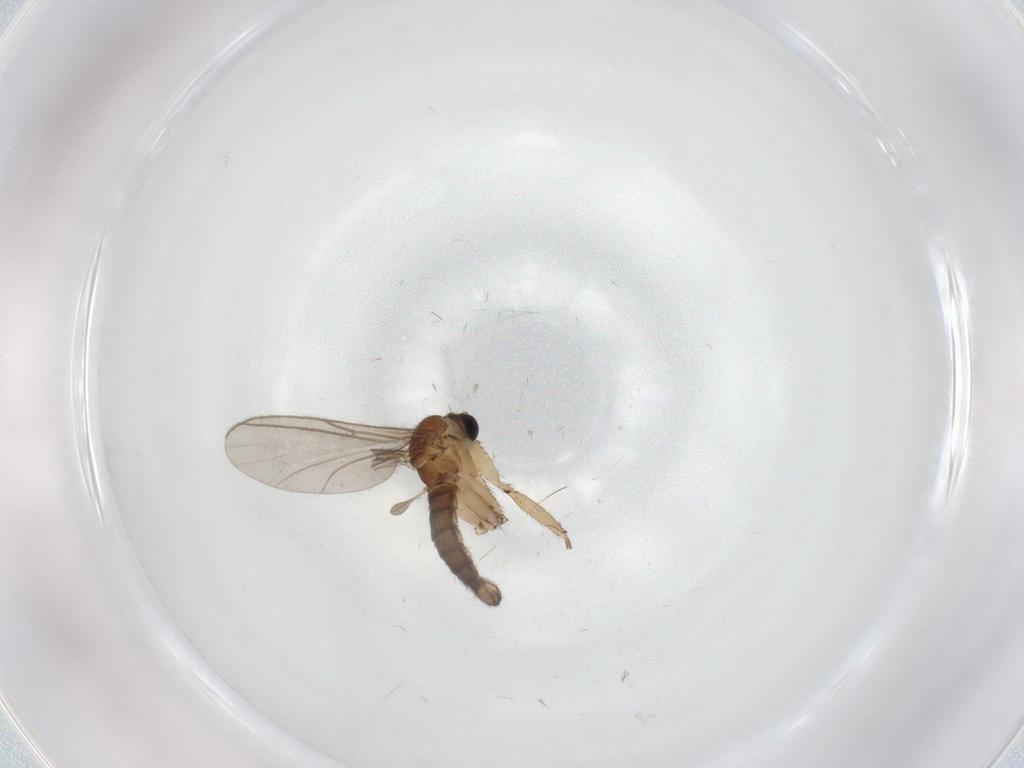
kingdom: Animalia
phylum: Arthropoda
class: Insecta
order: Diptera
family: Sciaridae
